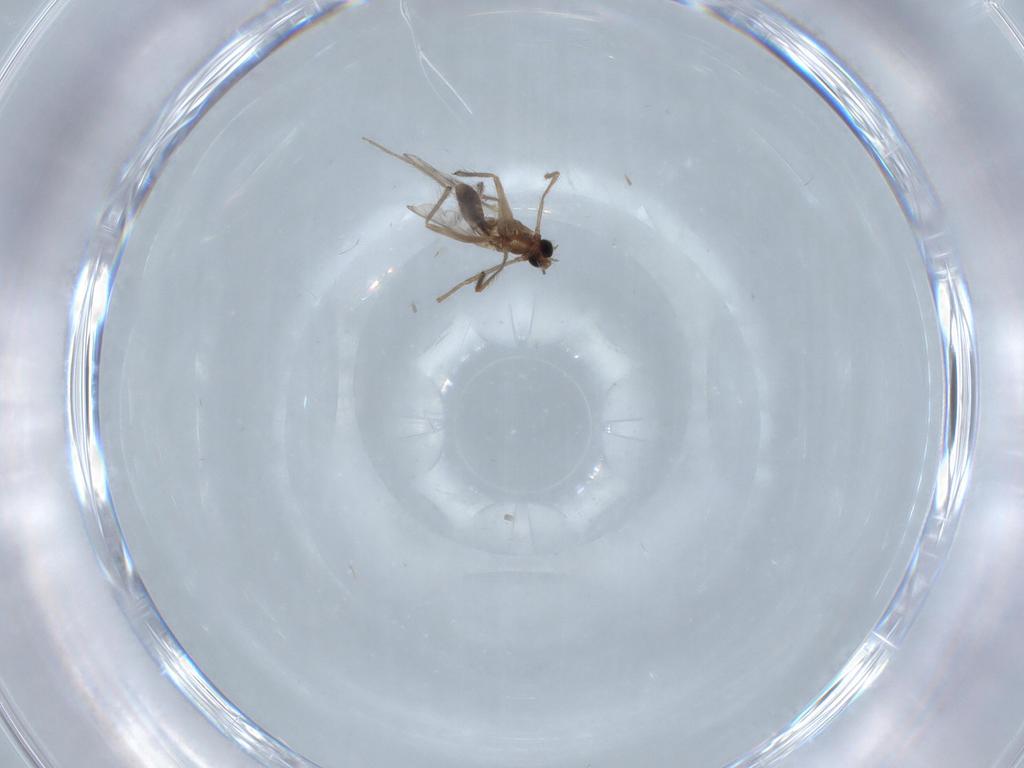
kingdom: Animalia
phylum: Arthropoda
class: Insecta
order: Diptera
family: Chironomidae
